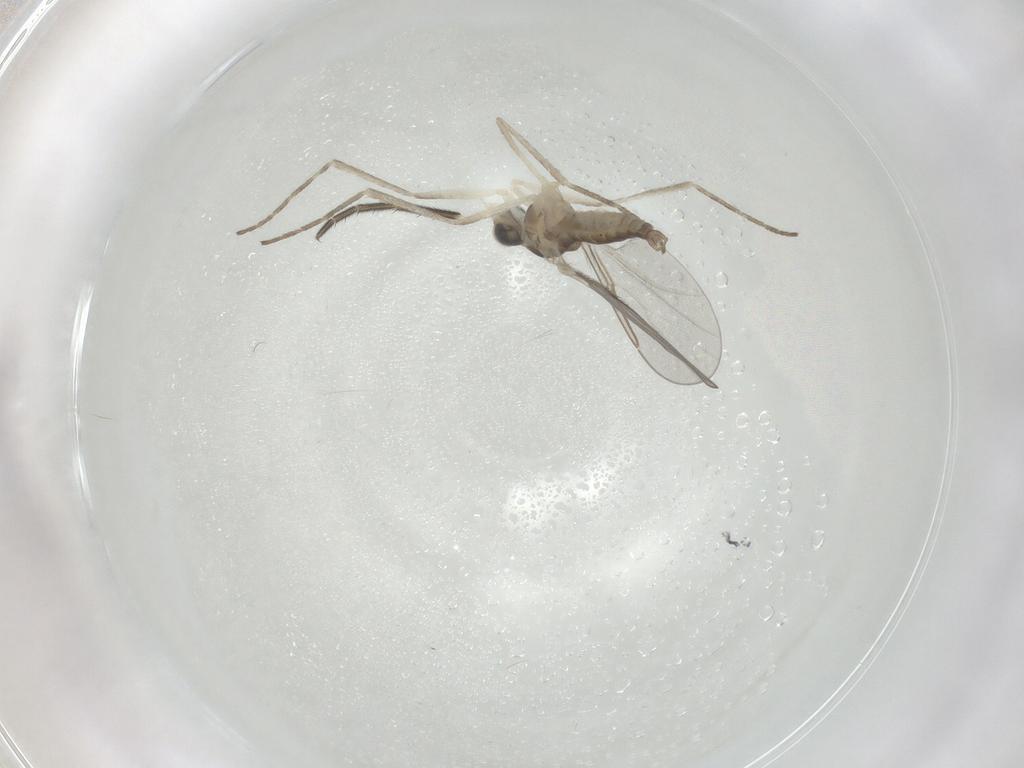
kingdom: Animalia
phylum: Arthropoda
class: Insecta
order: Diptera
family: Cecidomyiidae
